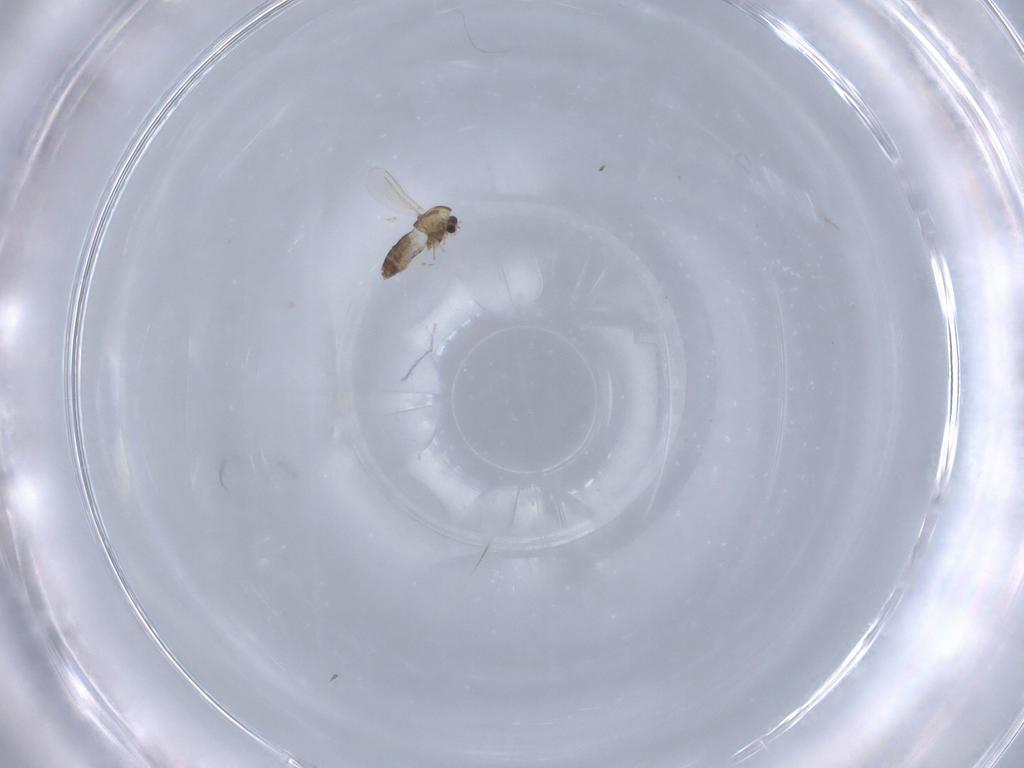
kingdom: Animalia
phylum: Arthropoda
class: Insecta
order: Diptera
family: Chironomidae
